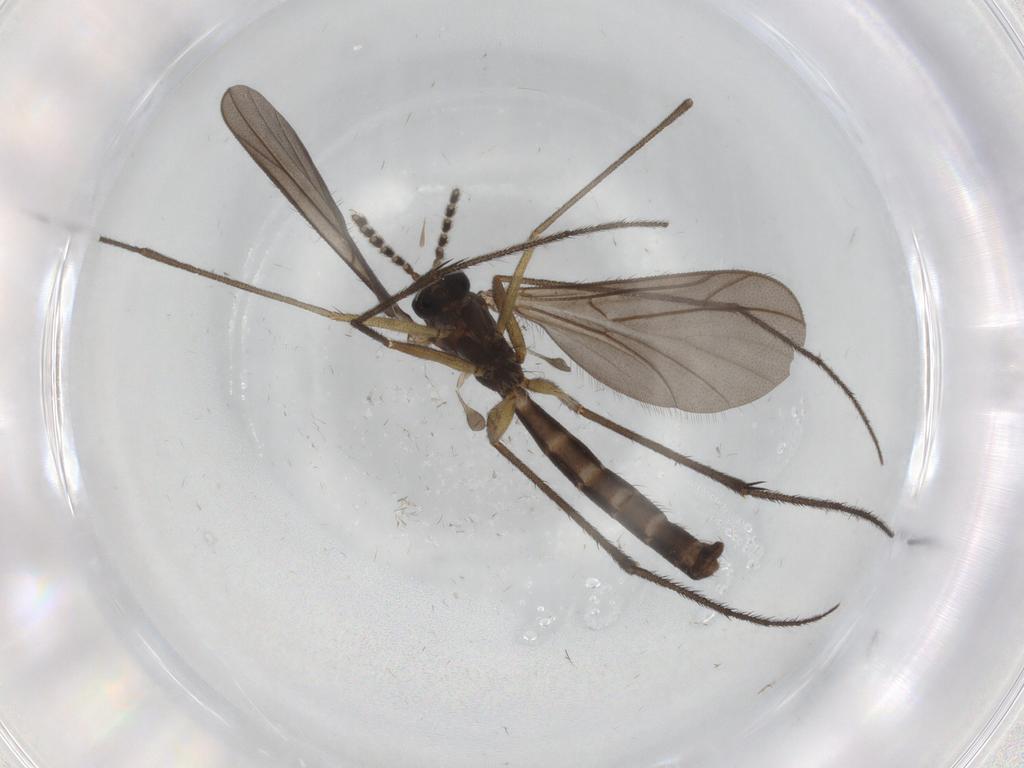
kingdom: Animalia
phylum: Arthropoda
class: Insecta
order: Diptera
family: Ditomyiidae
